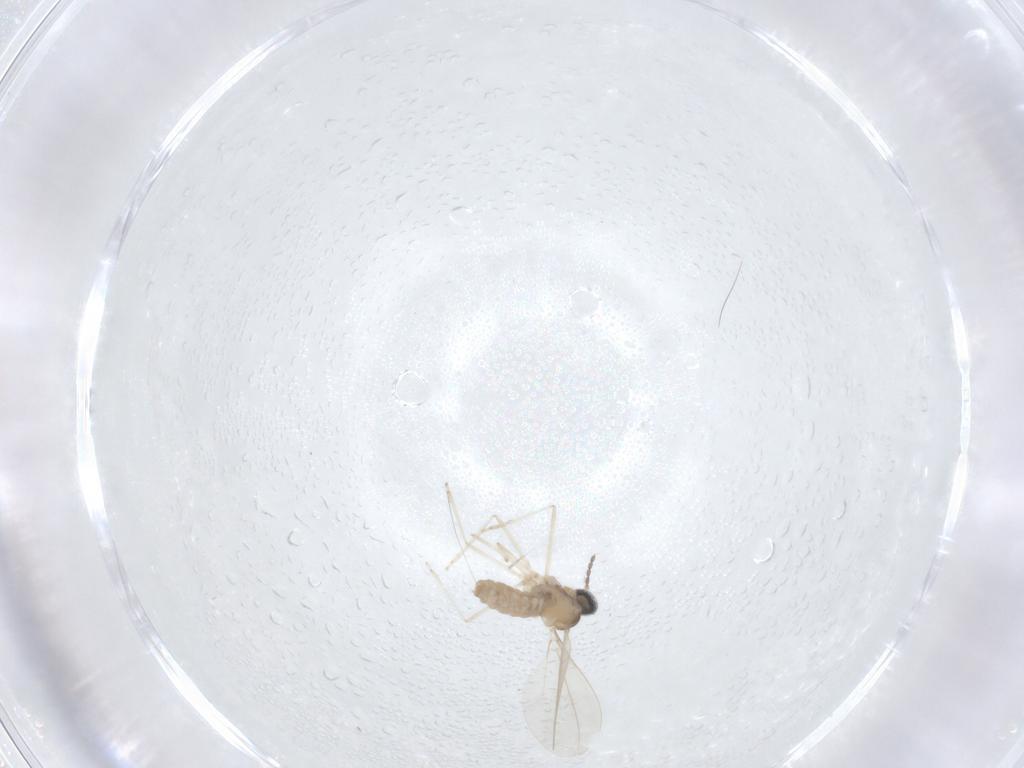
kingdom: Animalia
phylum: Arthropoda
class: Insecta
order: Diptera
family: Cecidomyiidae
